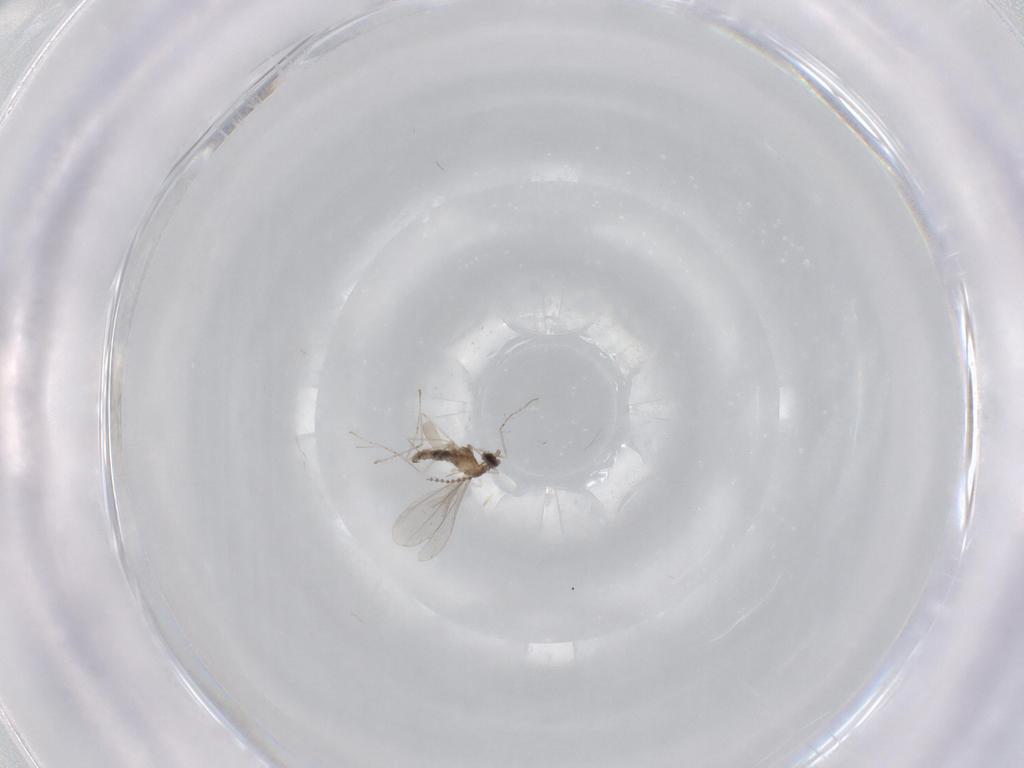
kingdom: Animalia
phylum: Arthropoda
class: Insecta
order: Diptera
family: Cecidomyiidae
